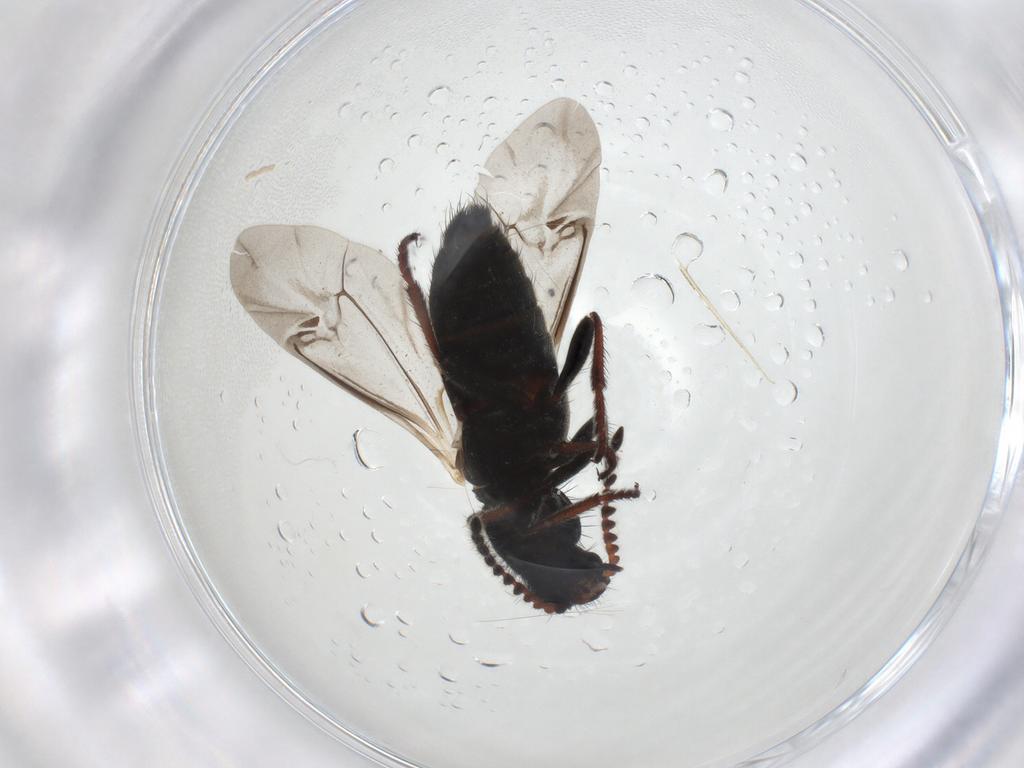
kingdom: Animalia
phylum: Arthropoda
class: Insecta
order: Coleoptera
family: Melyridae
